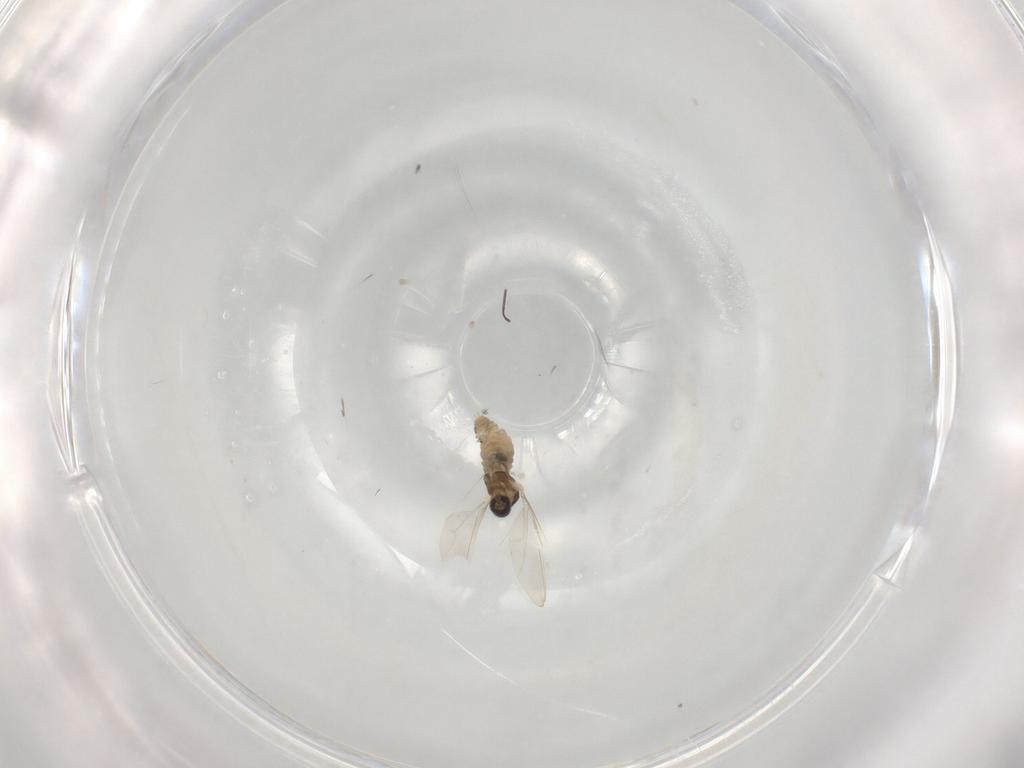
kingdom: Animalia
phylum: Arthropoda
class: Insecta
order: Diptera
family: Cecidomyiidae
